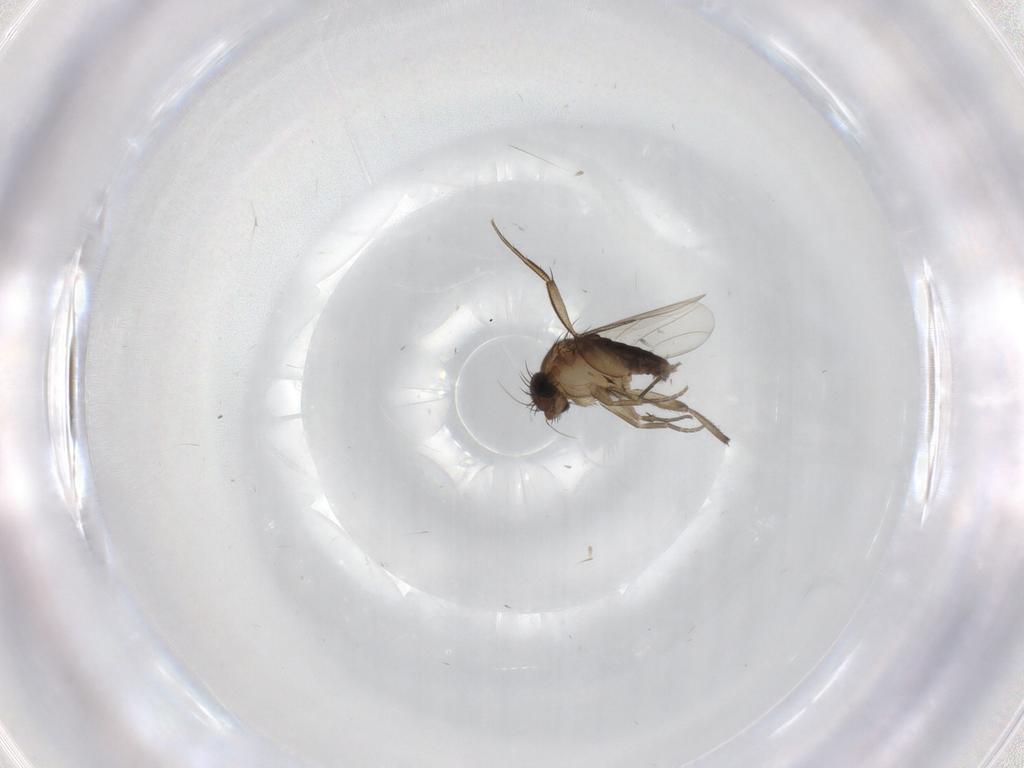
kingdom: Animalia
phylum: Arthropoda
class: Insecta
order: Diptera
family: Phoridae
